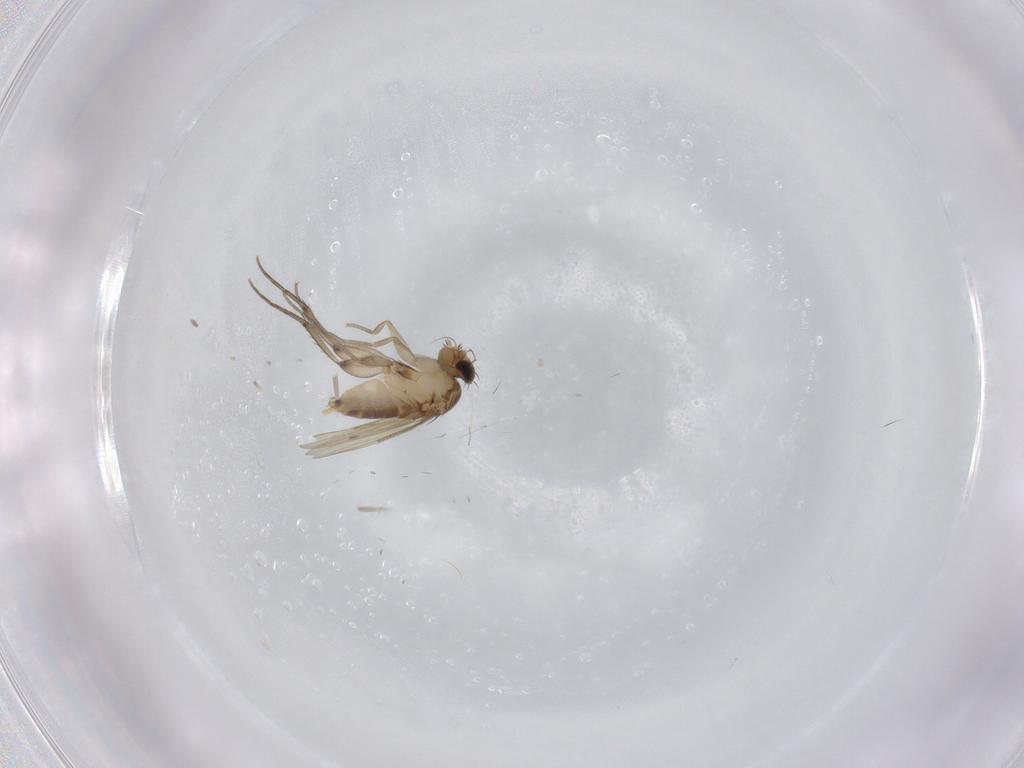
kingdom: Animalia
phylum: Arthropoda
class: Insecta
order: Diptera
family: Phoridae
